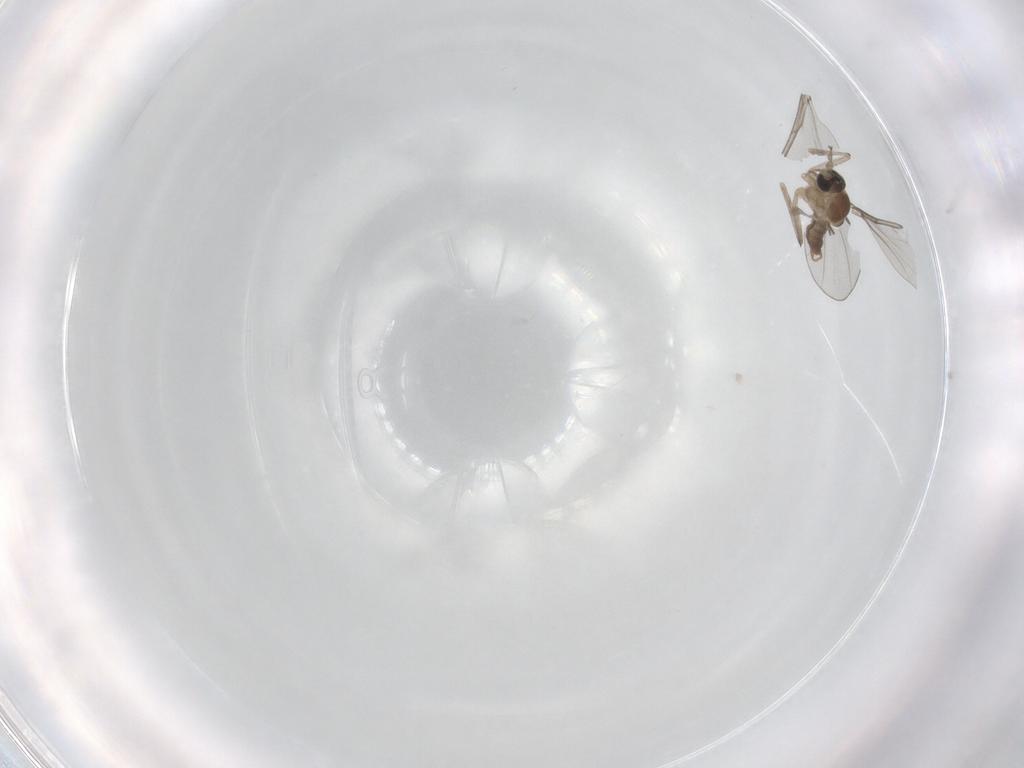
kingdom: Animalia
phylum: Arthropoda
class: Insecta
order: Diptera
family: Cecidomyiidae
